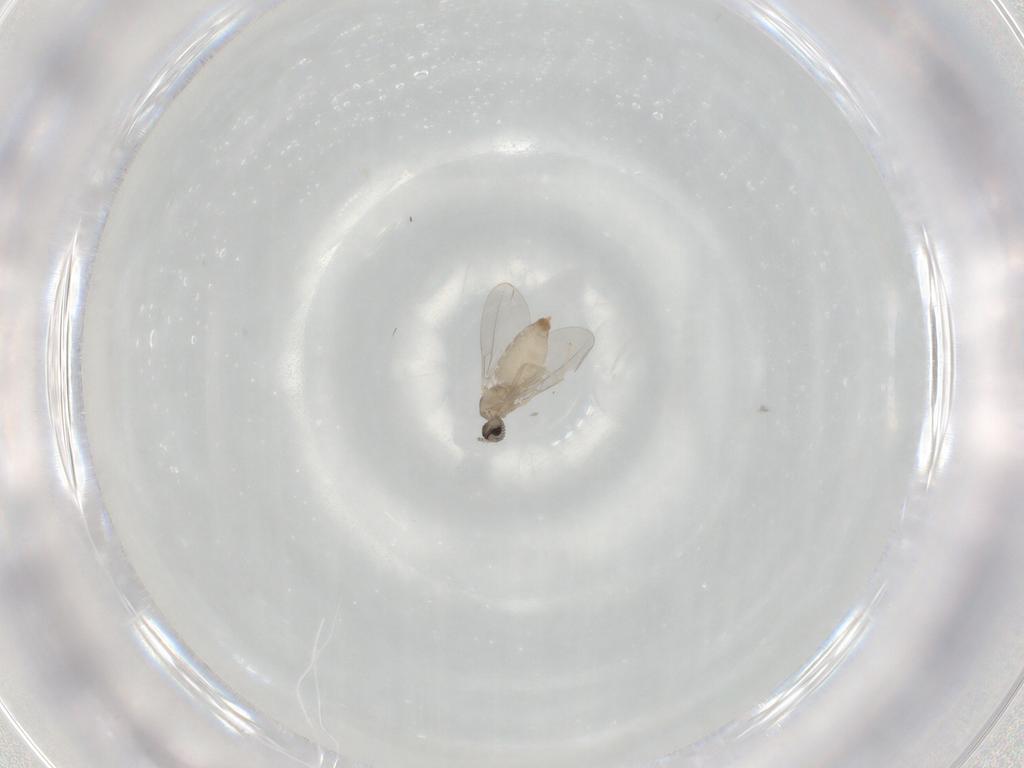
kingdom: Animalia
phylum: Arthropoda
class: Insecta
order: Diptera
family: Cecidomyiidae
